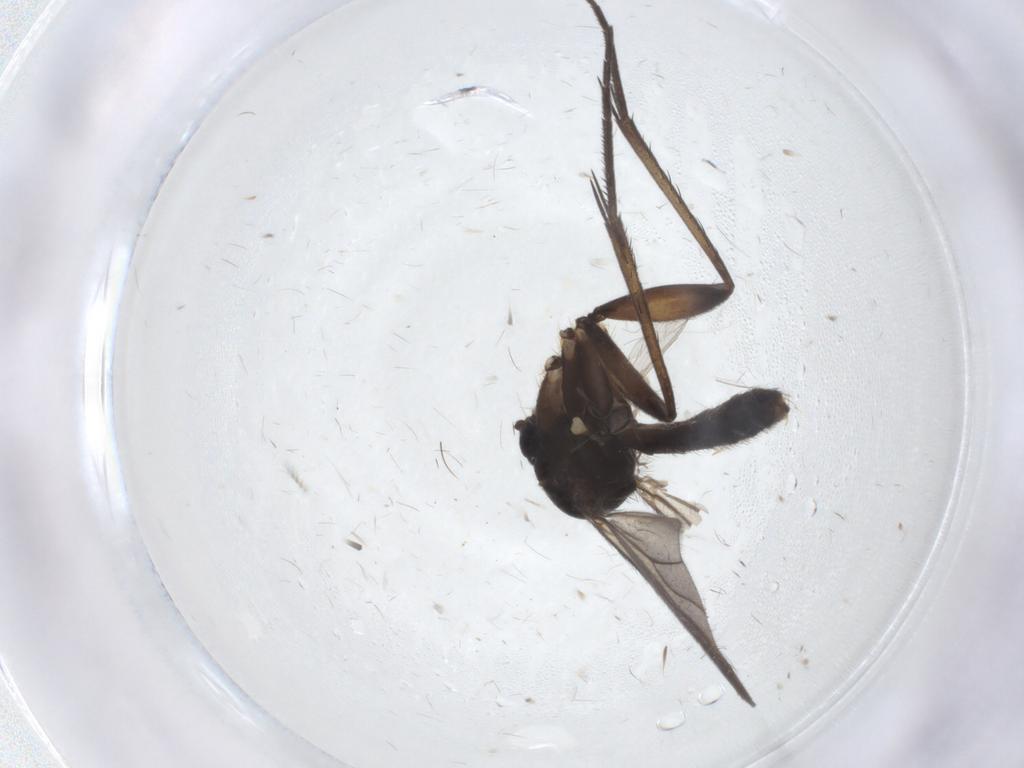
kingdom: Animalia
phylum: Arthropoda
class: Insecta
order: Diptera
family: Mycetophilidae
